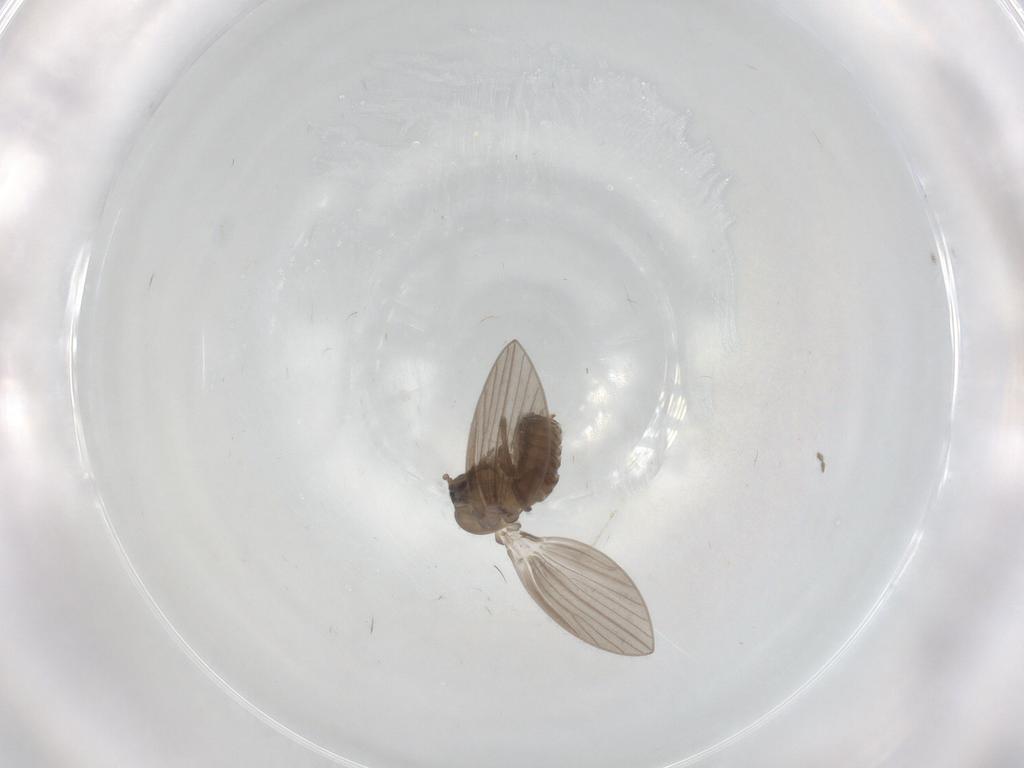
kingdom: Animalia
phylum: Arthropoda
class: Insecta
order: Diptera
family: Psychodidae
